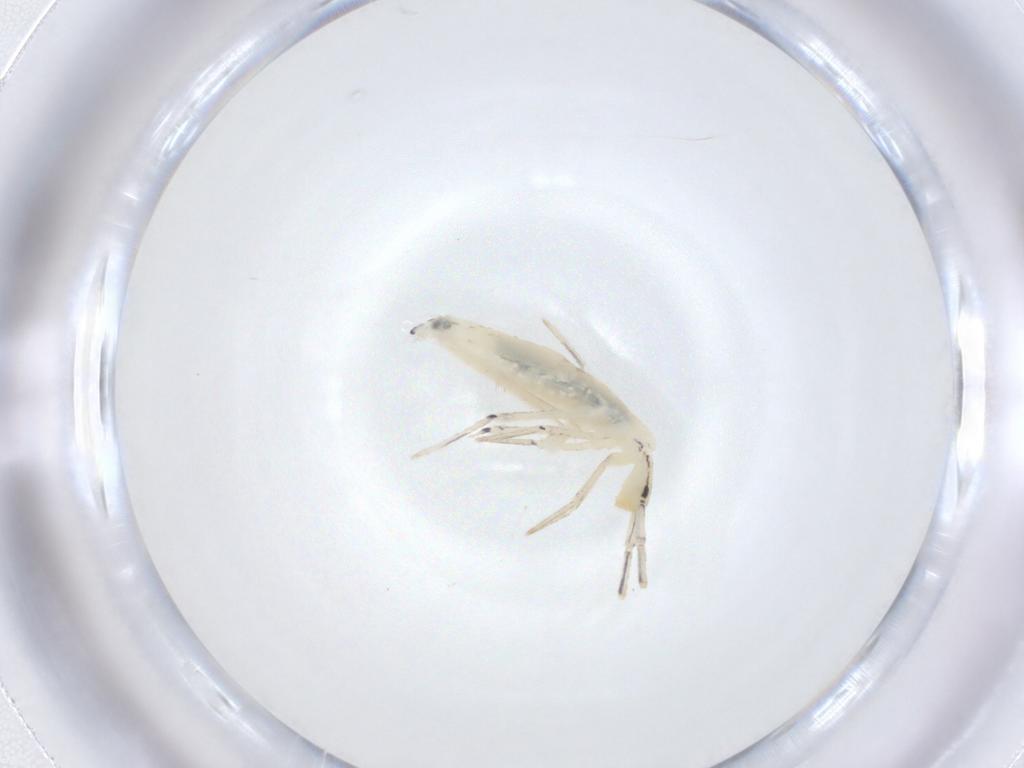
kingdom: Animalia
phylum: Arthropoda
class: Collembola
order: Entomobryomorpha
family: Entomobryidae
